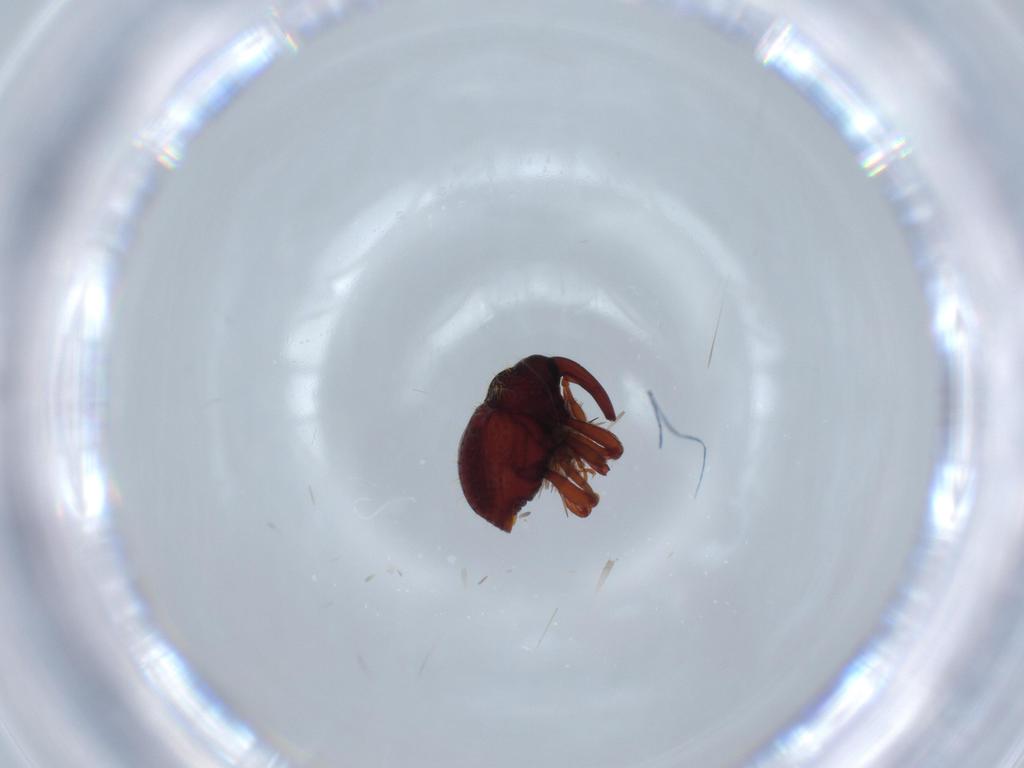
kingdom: Animalia
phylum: Arthropoda
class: Insecta
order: Coleoptera
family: Curculionidae
